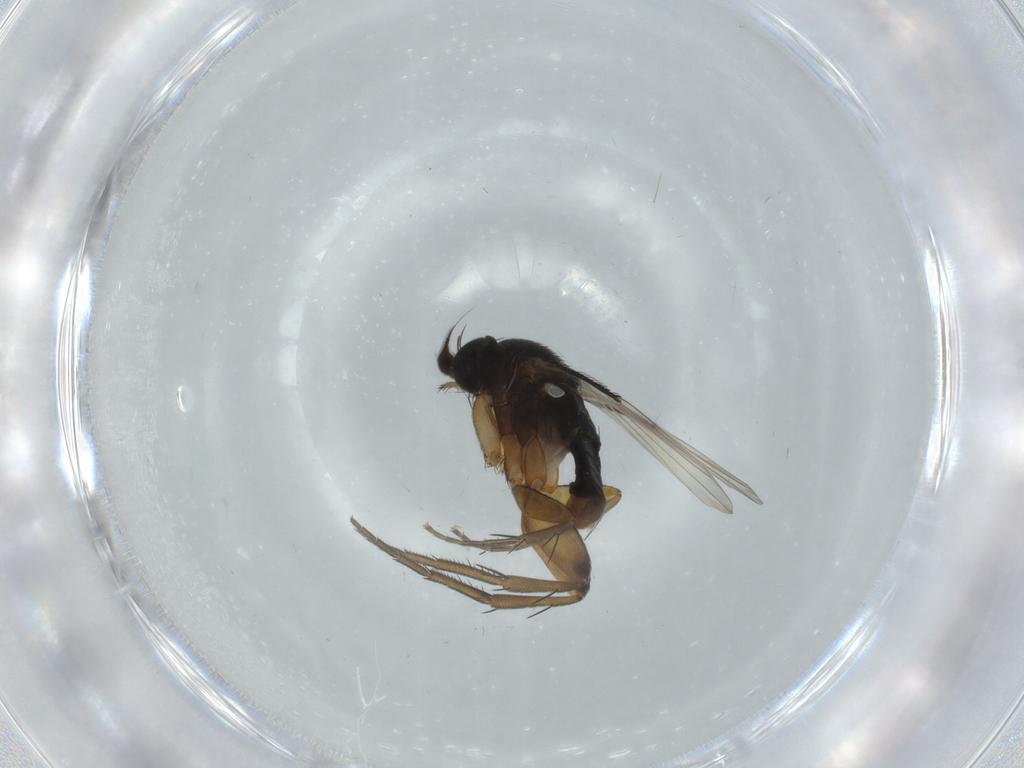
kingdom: Animalia
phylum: Arthropoda
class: Insecta
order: Diptera
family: Phoridae
